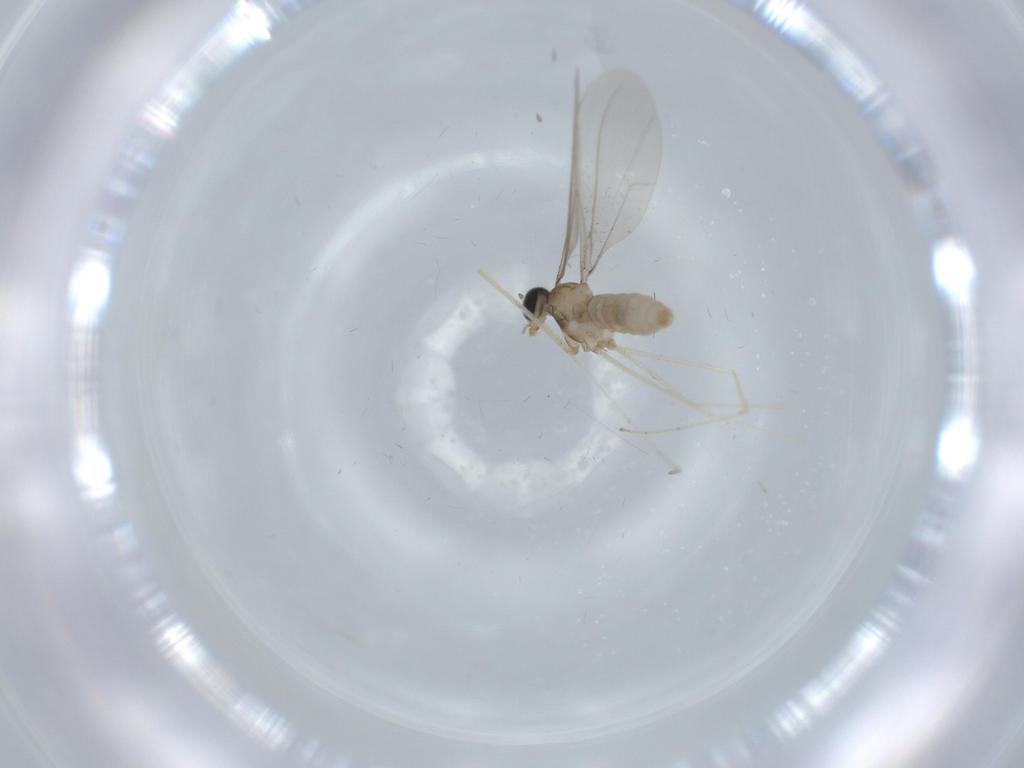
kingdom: Animalia
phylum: Arthropoda
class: Insecta
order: Diptera
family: Cecidomyiidae
